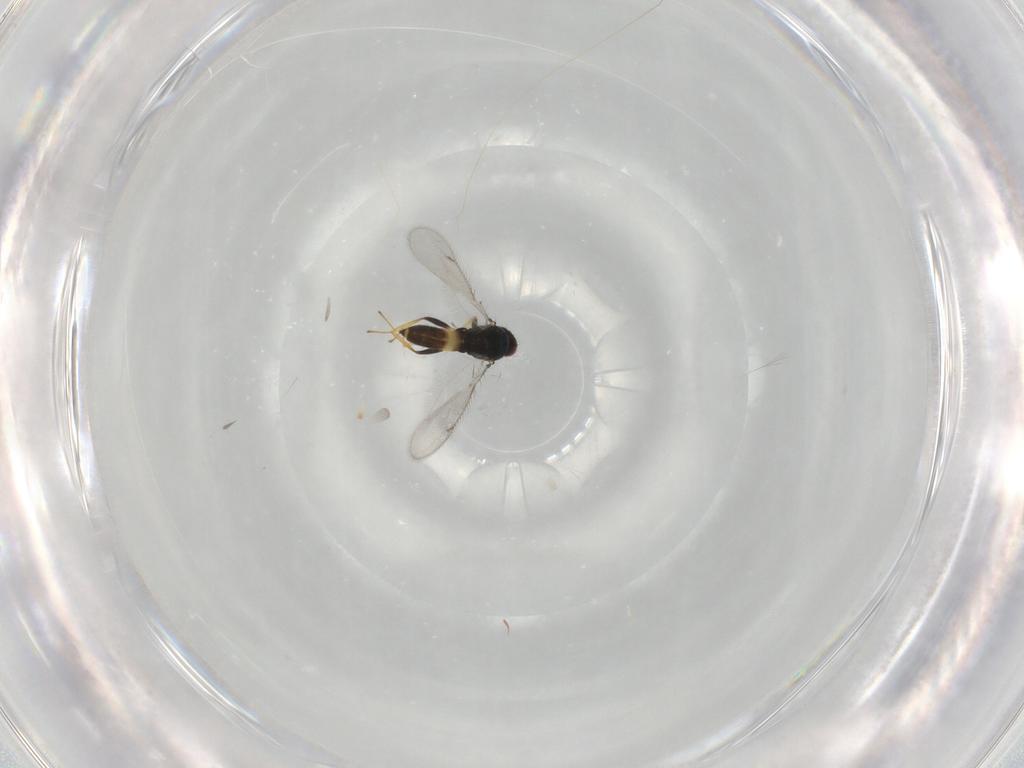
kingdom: Animalia
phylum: Arthropoda
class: Insecta
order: Hymenoptera
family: Eulophidae
